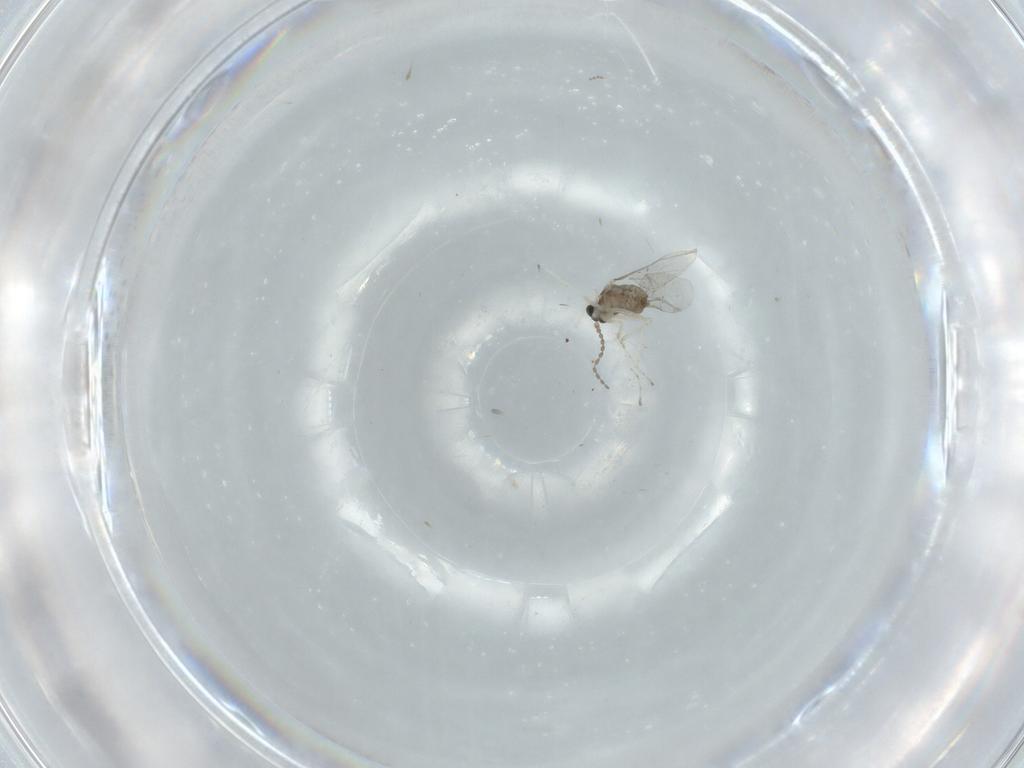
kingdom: Animalia
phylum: Arthropoda
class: Insecta
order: Diptera
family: Cecidomyiidae
